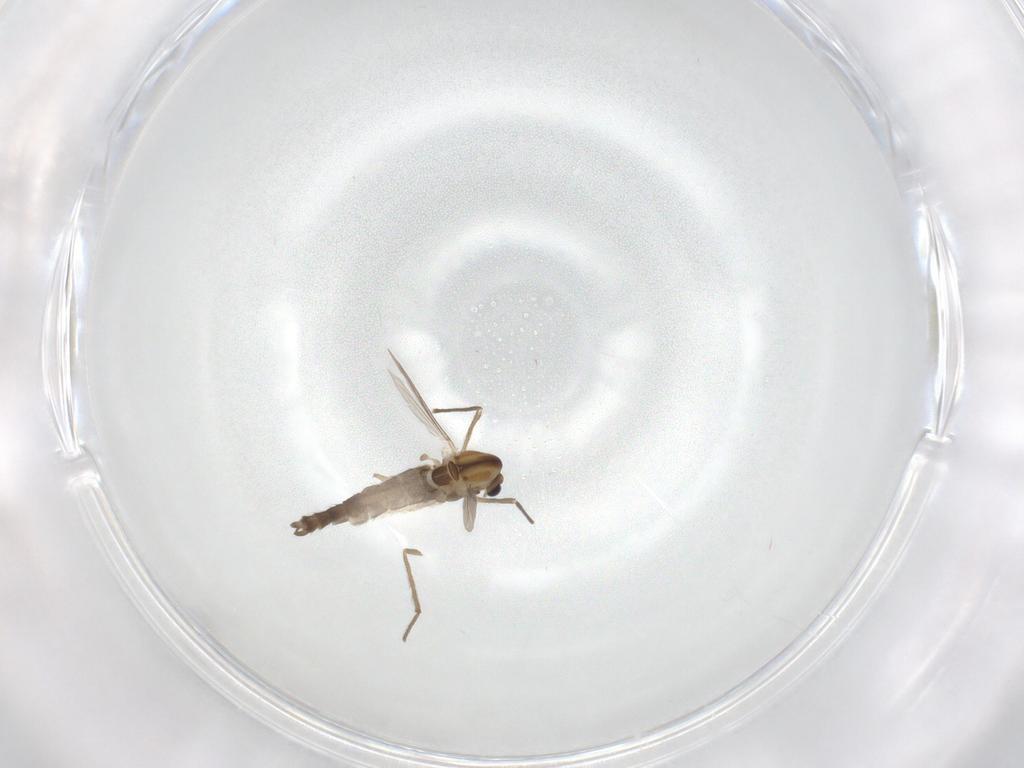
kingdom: Animalia
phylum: Arthropoda
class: Insecta
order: Diptera
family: Chironomidae
